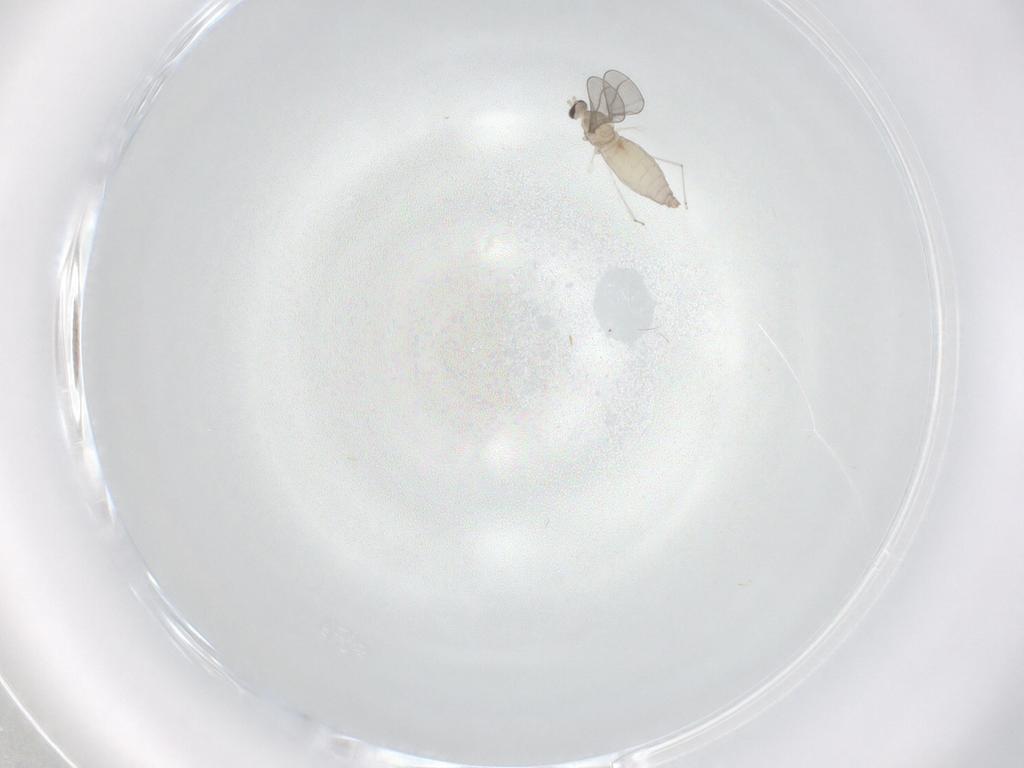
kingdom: Animalia
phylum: Arthropoda
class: Insecta
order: Diptera
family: Cecidomyiidae
